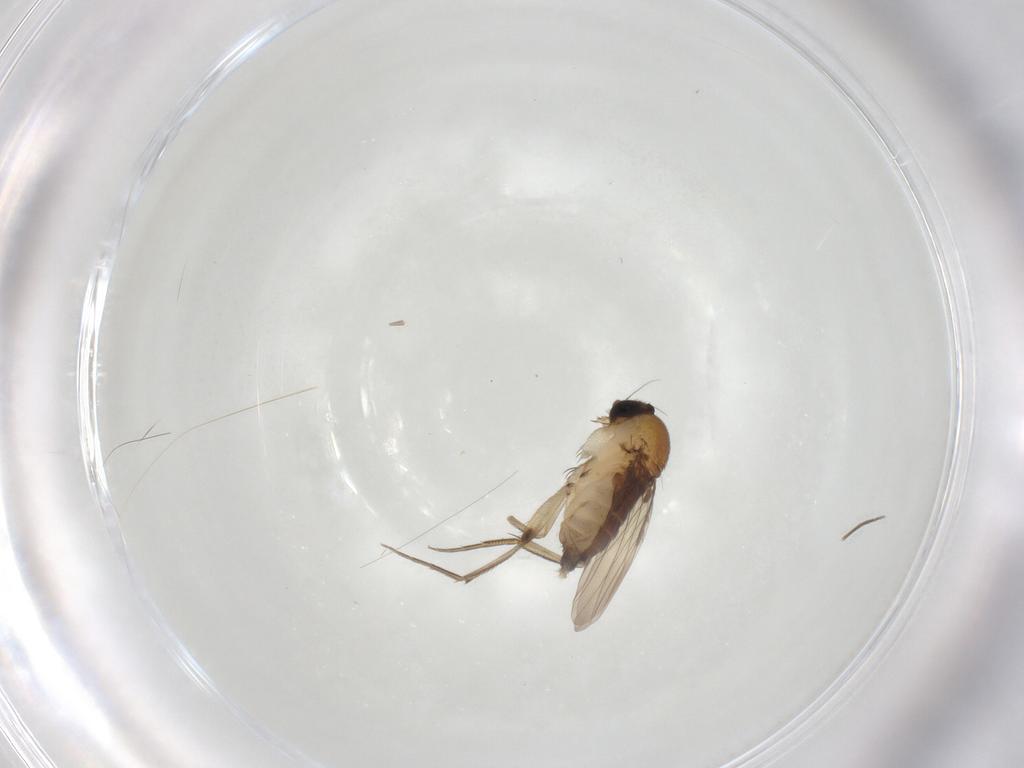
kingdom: Animalia
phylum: Arthropoda
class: Insecta
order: Diptera
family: Phoridae
